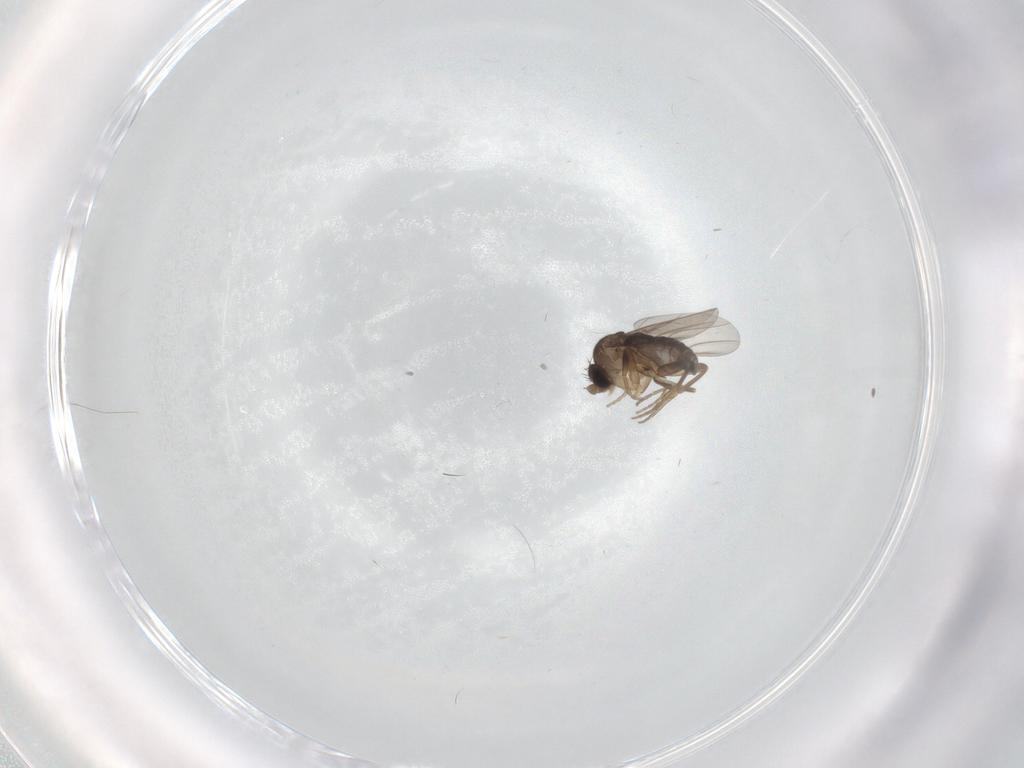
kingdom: Animalia
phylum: Arthropoda
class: Insecta
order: Diptera
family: Phoridae
